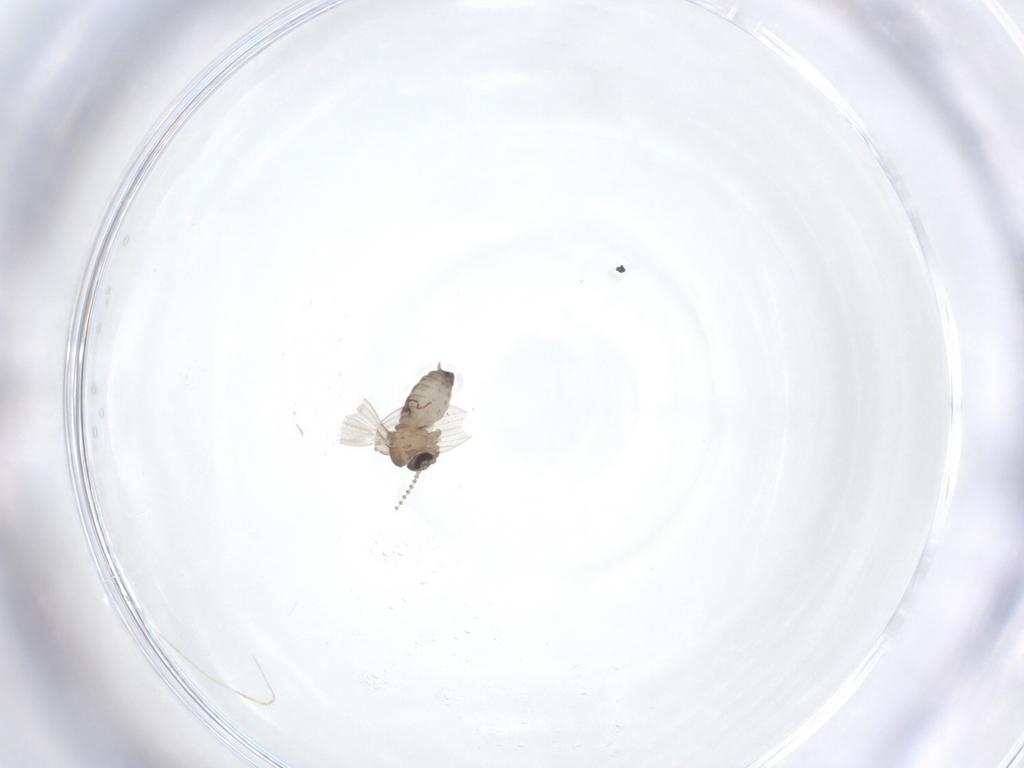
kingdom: Animalia
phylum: Arthropoda
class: Insecta
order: Diptera
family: Psychodidae
